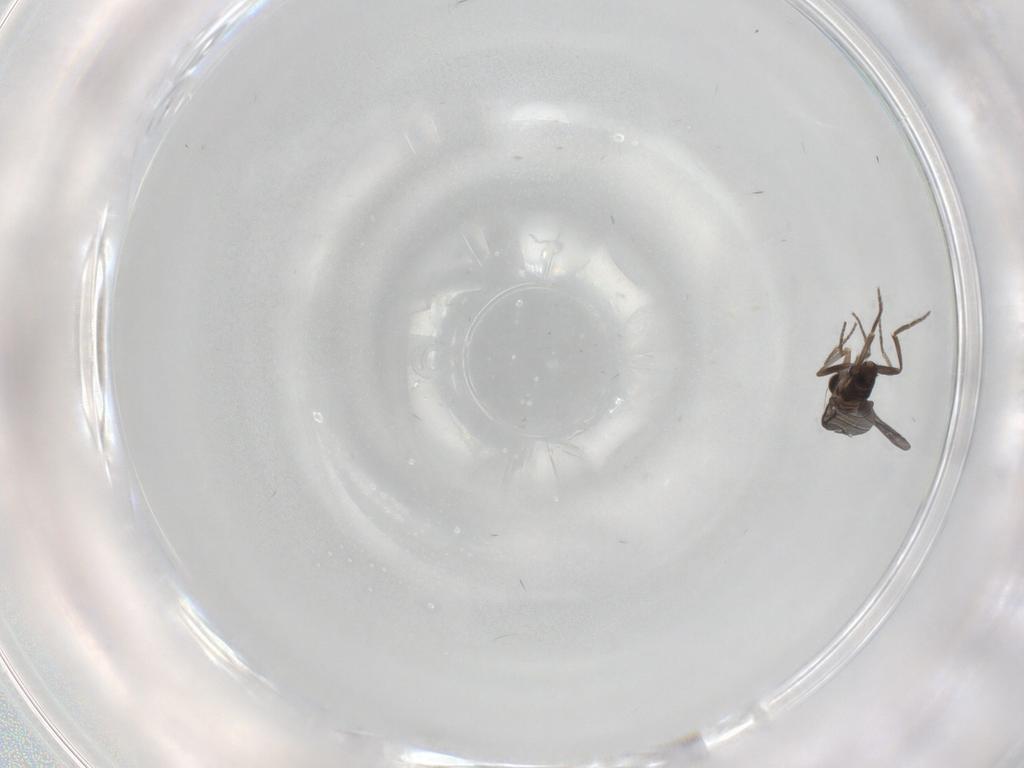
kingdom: Animalia
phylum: Arthropoda
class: Insecta
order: Diptera
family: Phoridae
